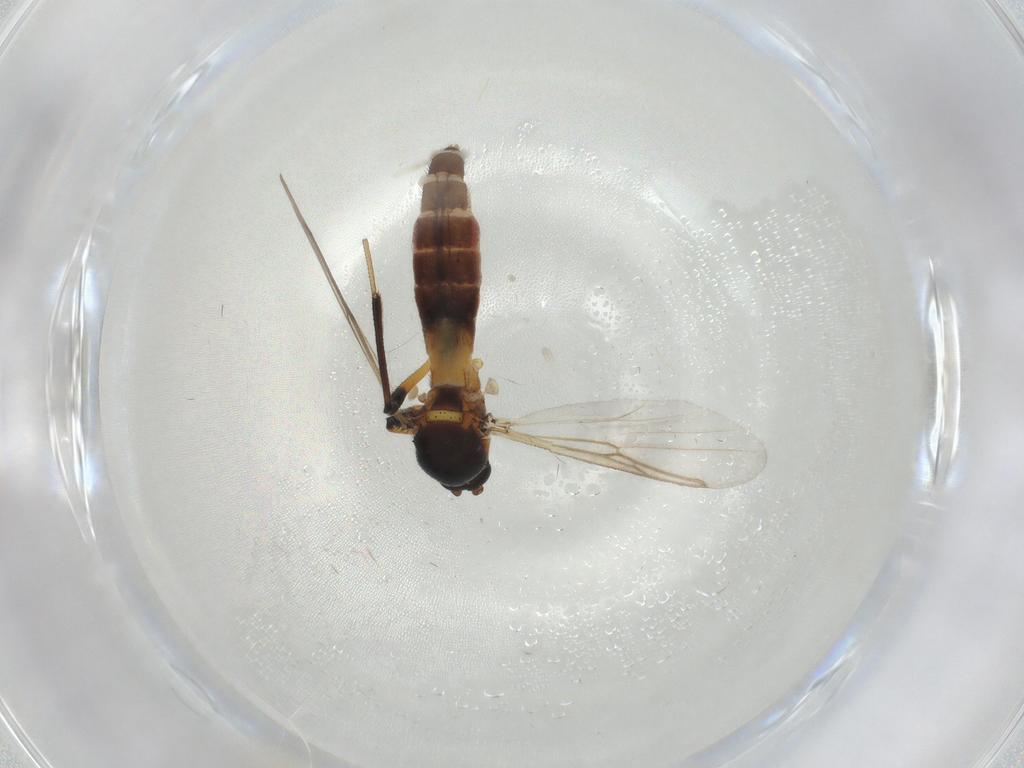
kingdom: Animalia
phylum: Arthropoda
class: Insecta
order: Diptera
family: Ceratopogonidae
